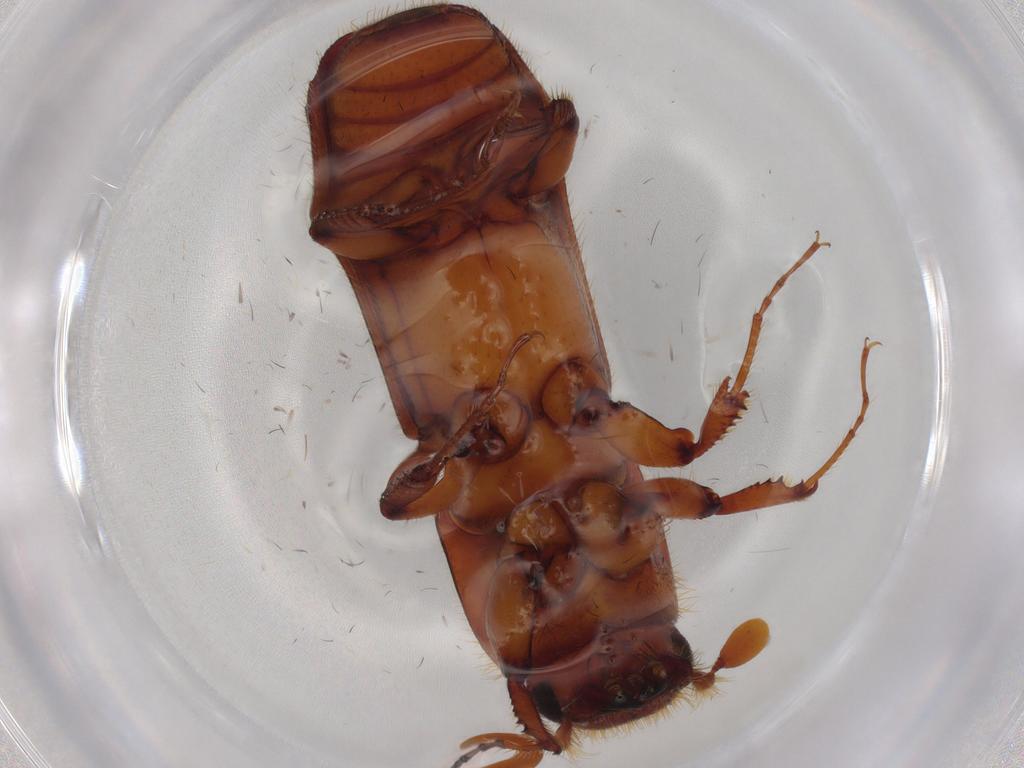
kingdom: Animalia
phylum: Arthropoda
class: Insecta
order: Coleoptera
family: Curculionidae
